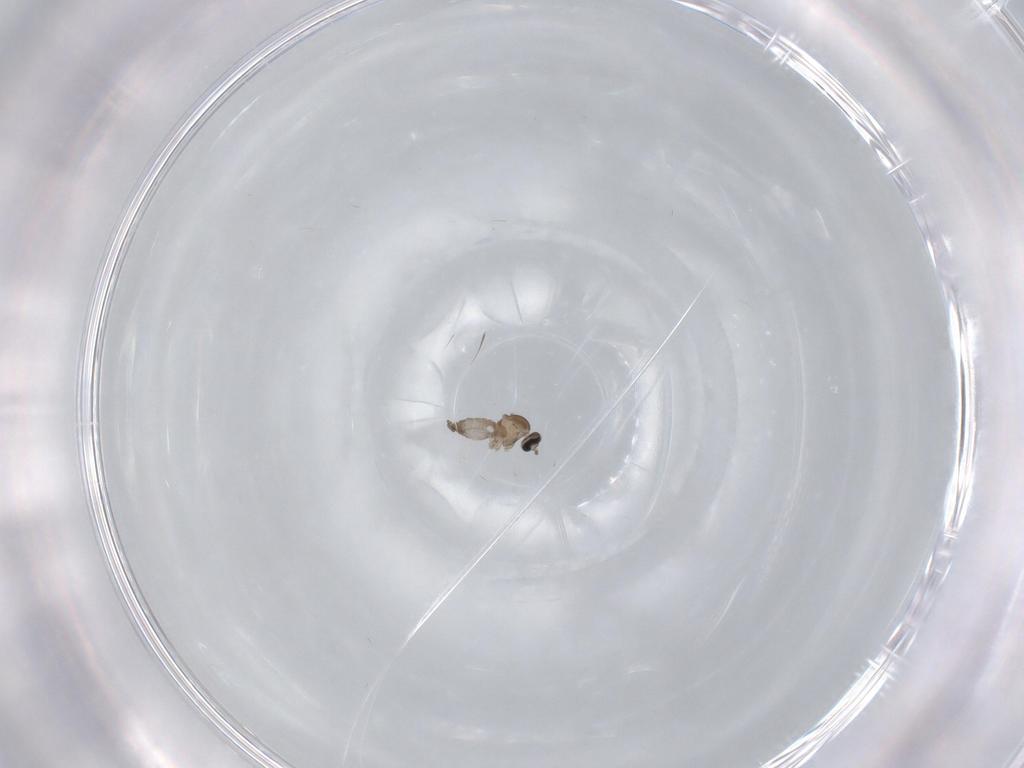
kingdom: Animalia
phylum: Arthropoda
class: Insecta
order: Diptera
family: Cecidomyiidae
